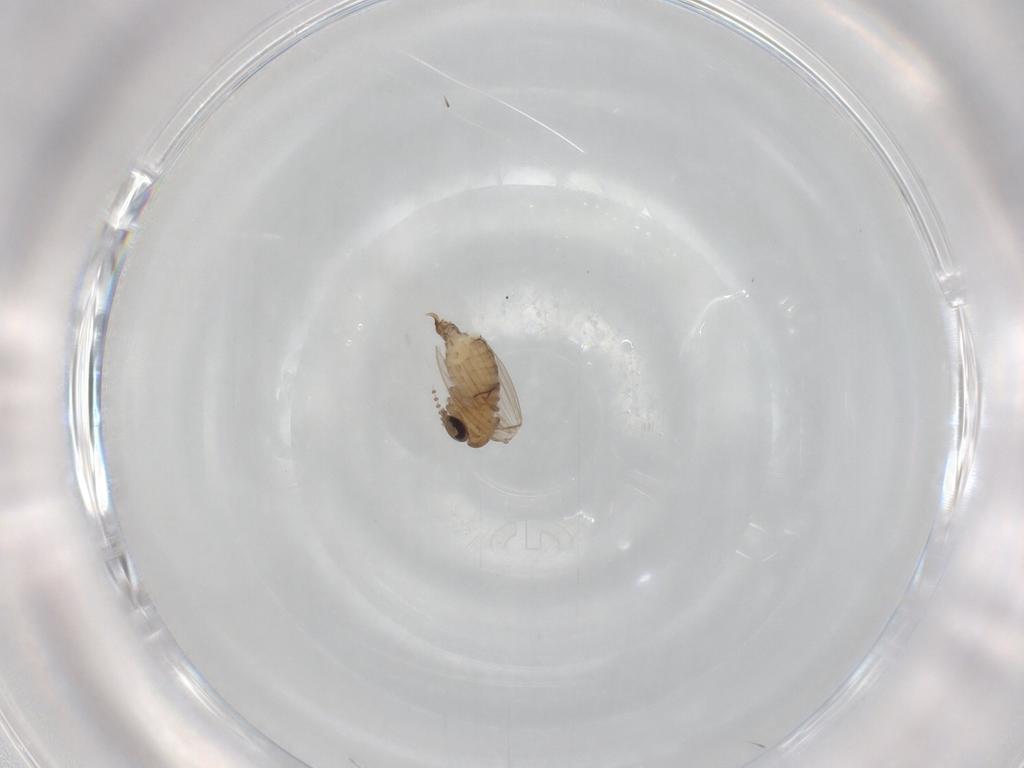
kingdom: Animalia
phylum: Arthropoda
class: Insecta
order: Diptera
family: Psychodidae
